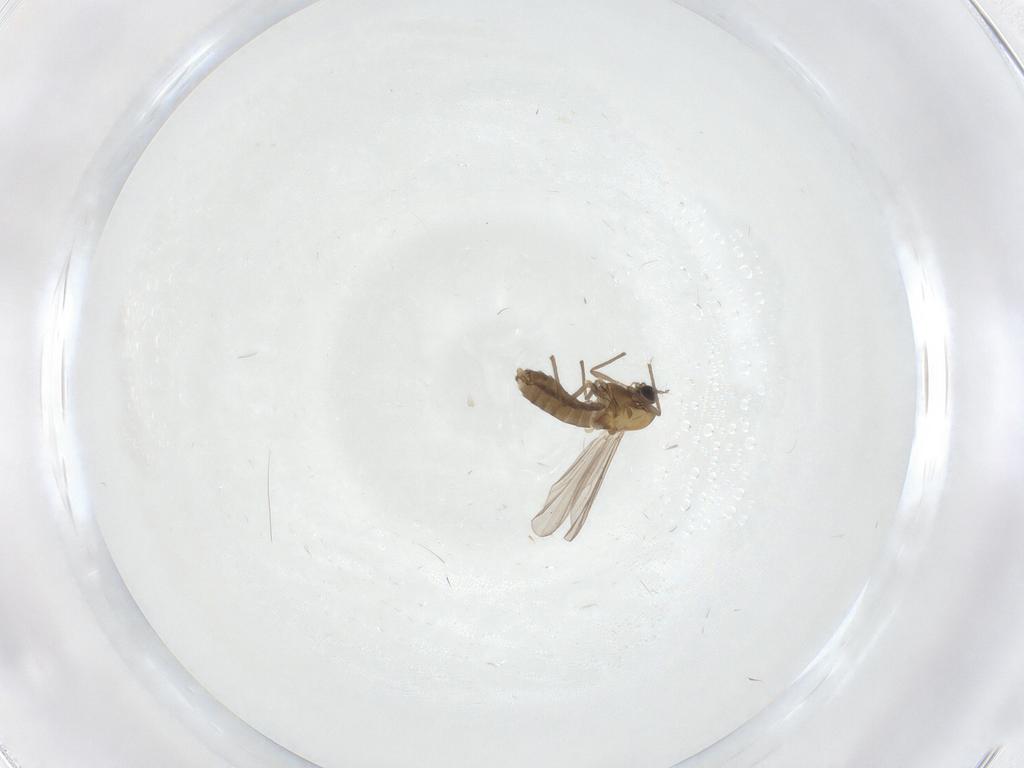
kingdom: Animalia
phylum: Arthropoda
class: Insecta
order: Diptera
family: Chironomidae
